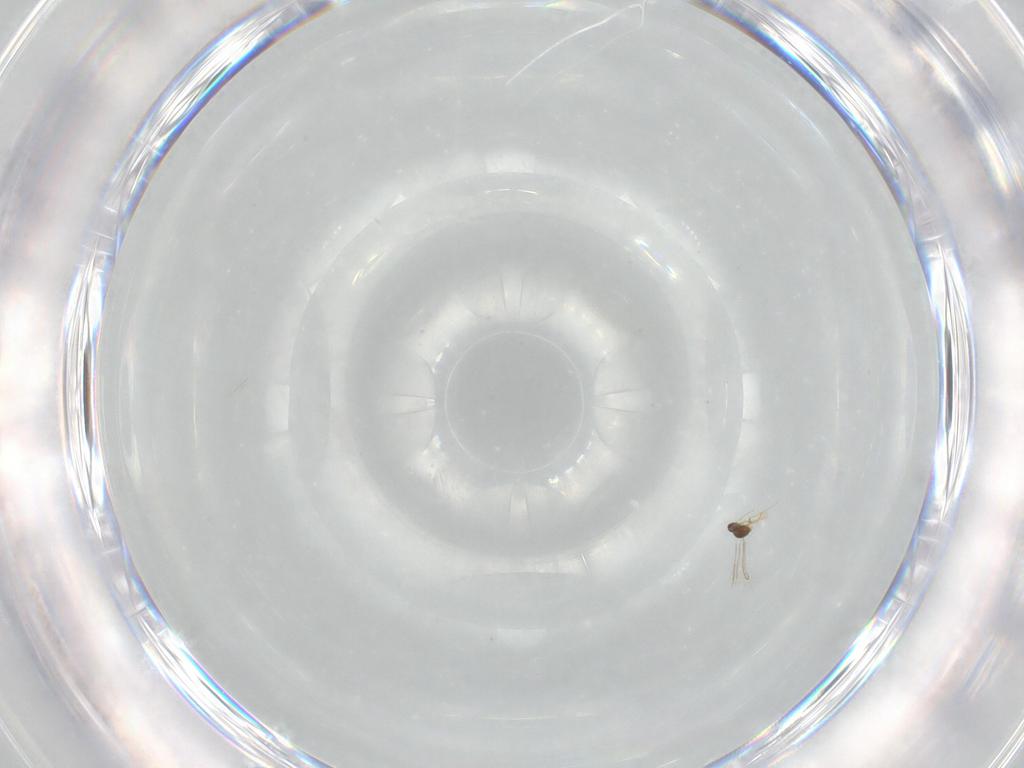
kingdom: Animalia
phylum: Arthropoda
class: Insecta
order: Hymenoptera
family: Mymaridae
